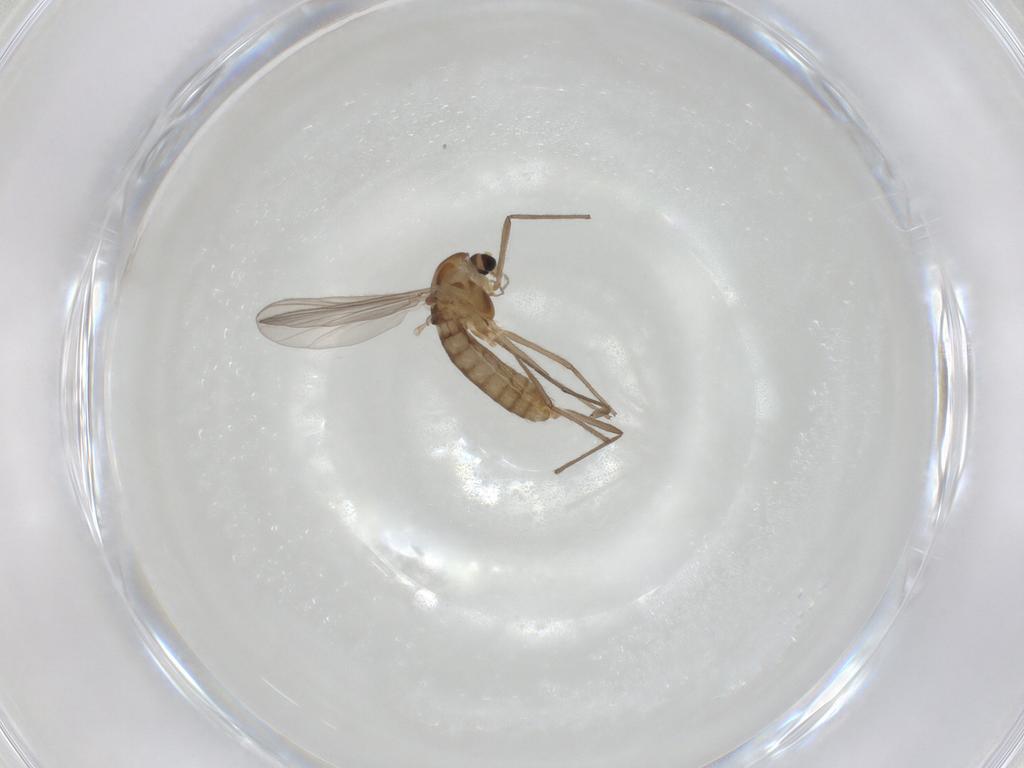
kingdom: Animalia
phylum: Arthropoda
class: Insecta
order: Diptera
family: Chironomidae
